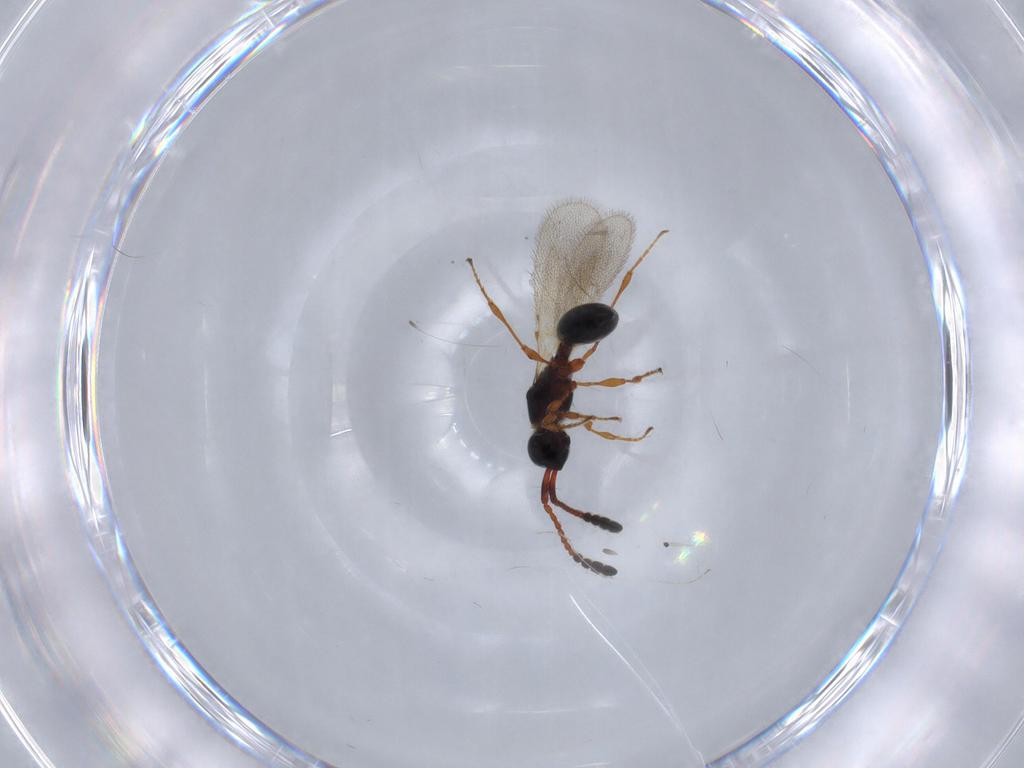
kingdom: Animalia
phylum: Arthropoda
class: Insecta
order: Hymenoptera
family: Diapriidae
